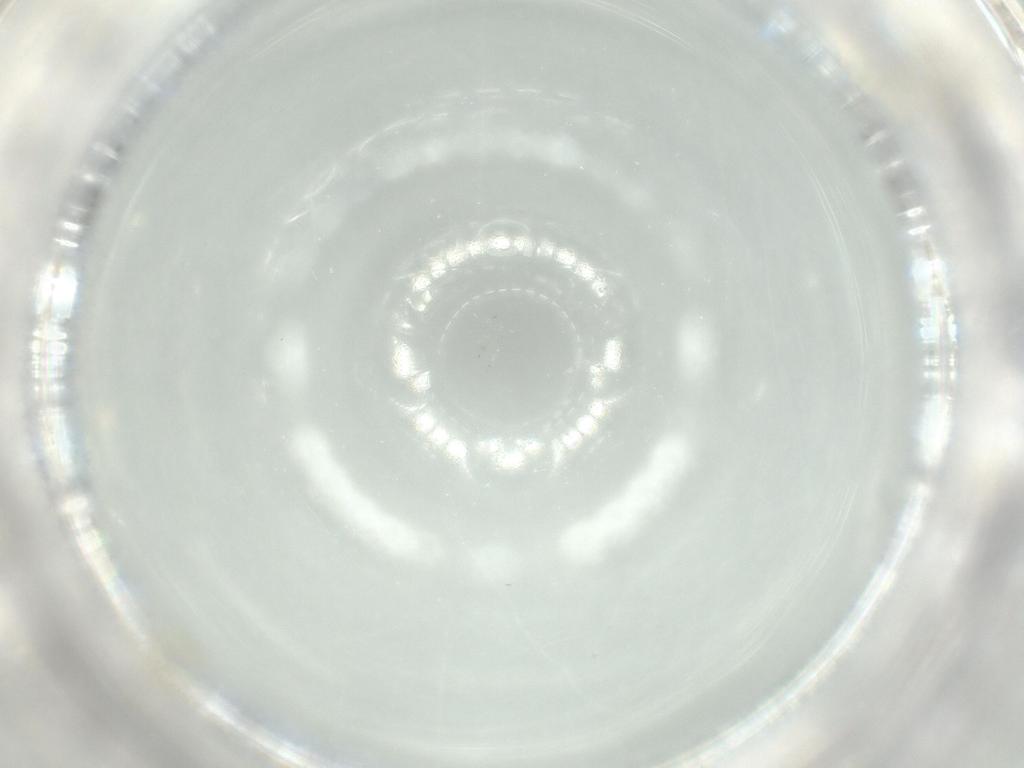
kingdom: Animalia
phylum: Arthropoda
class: Insecta
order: Diptera
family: Cecidomyiidae
